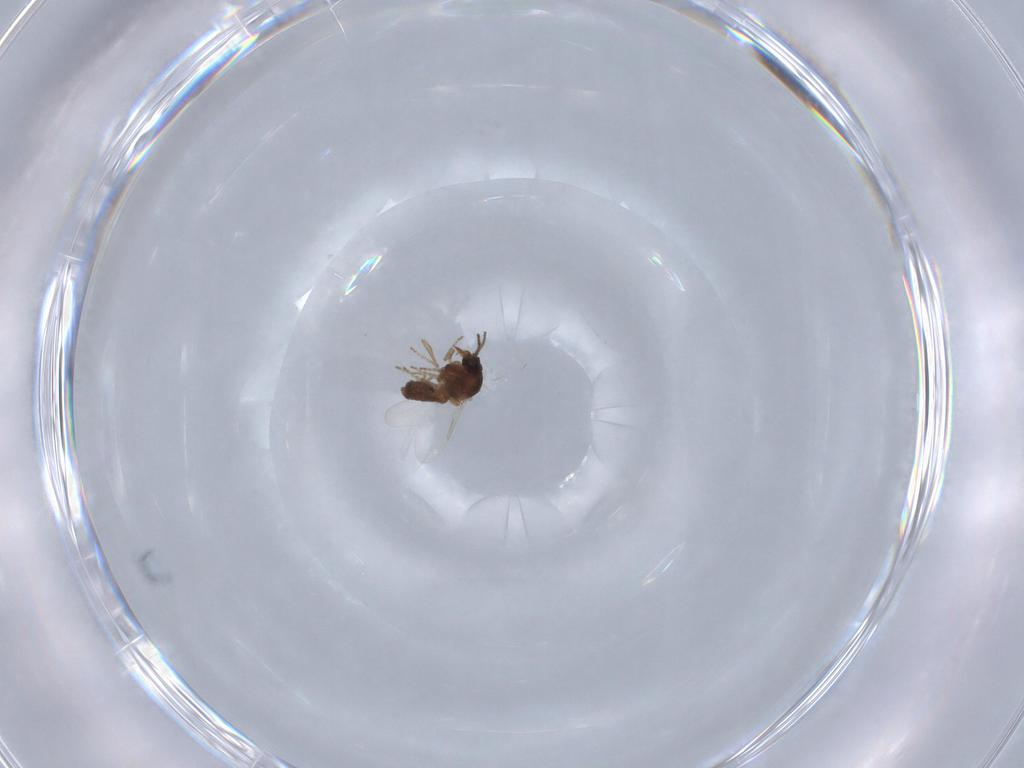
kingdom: Animalia
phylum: Arthropoda
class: Insecta
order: Diptera
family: Ceratopogonidae
